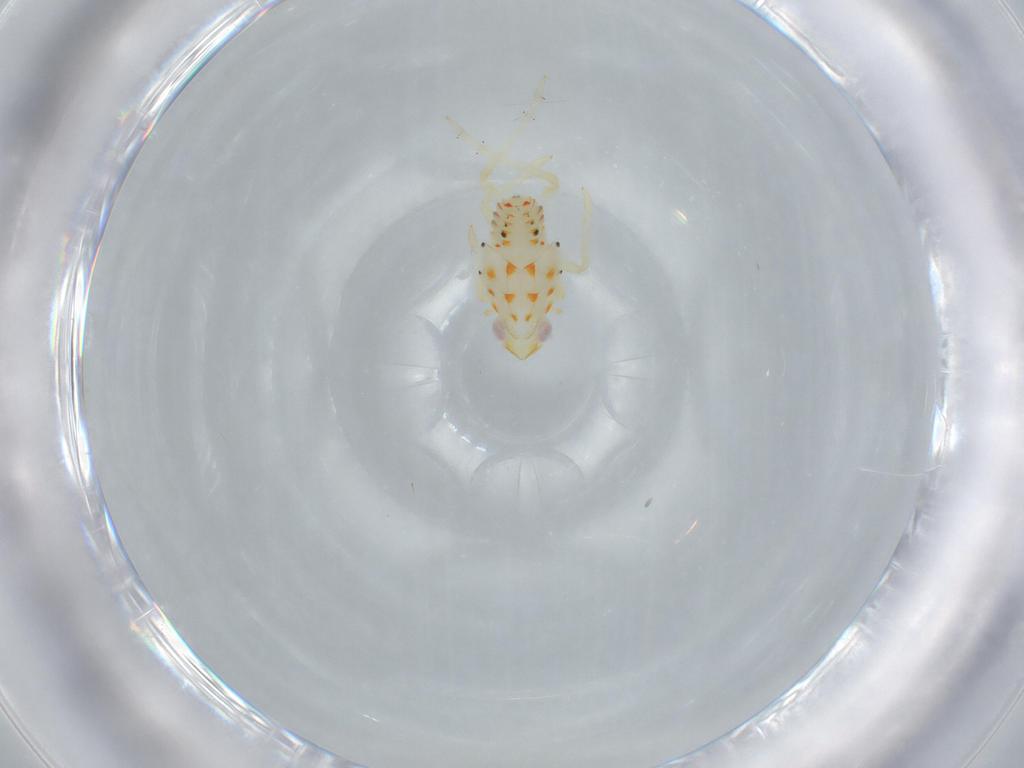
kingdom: Animalia
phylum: Arthropoda
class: Insecta
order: Hemiptera
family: Tropiduchidae
